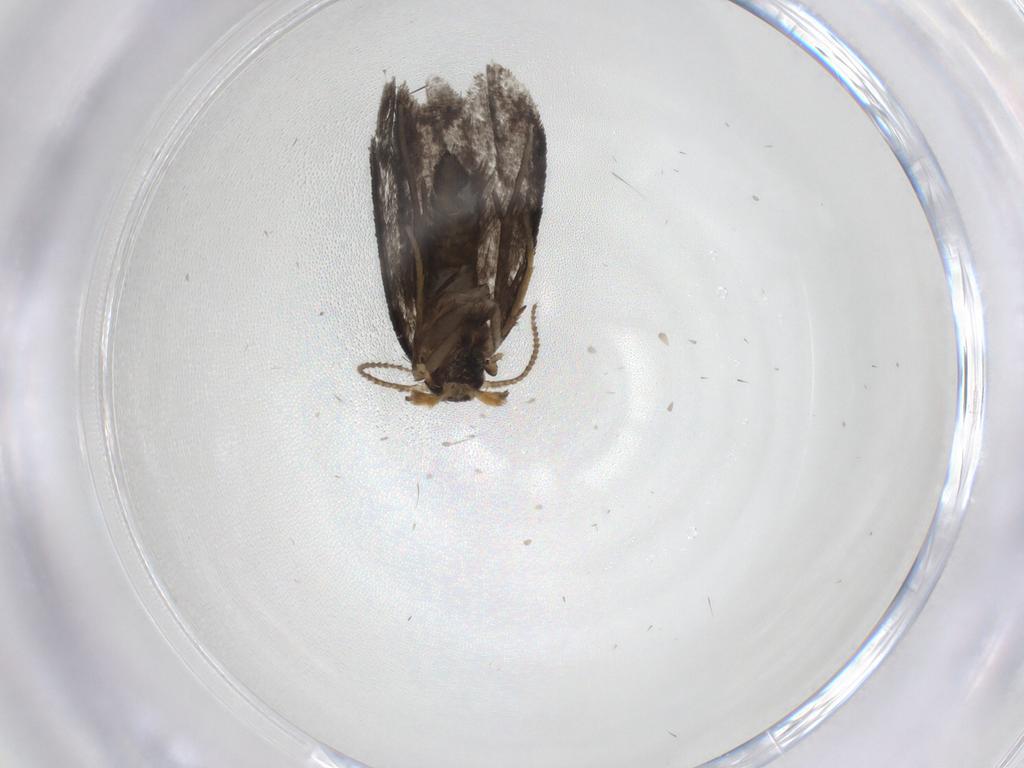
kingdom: Animalia
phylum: Arthropoda
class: Insecta
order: Lepidoptera
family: Psychidae
